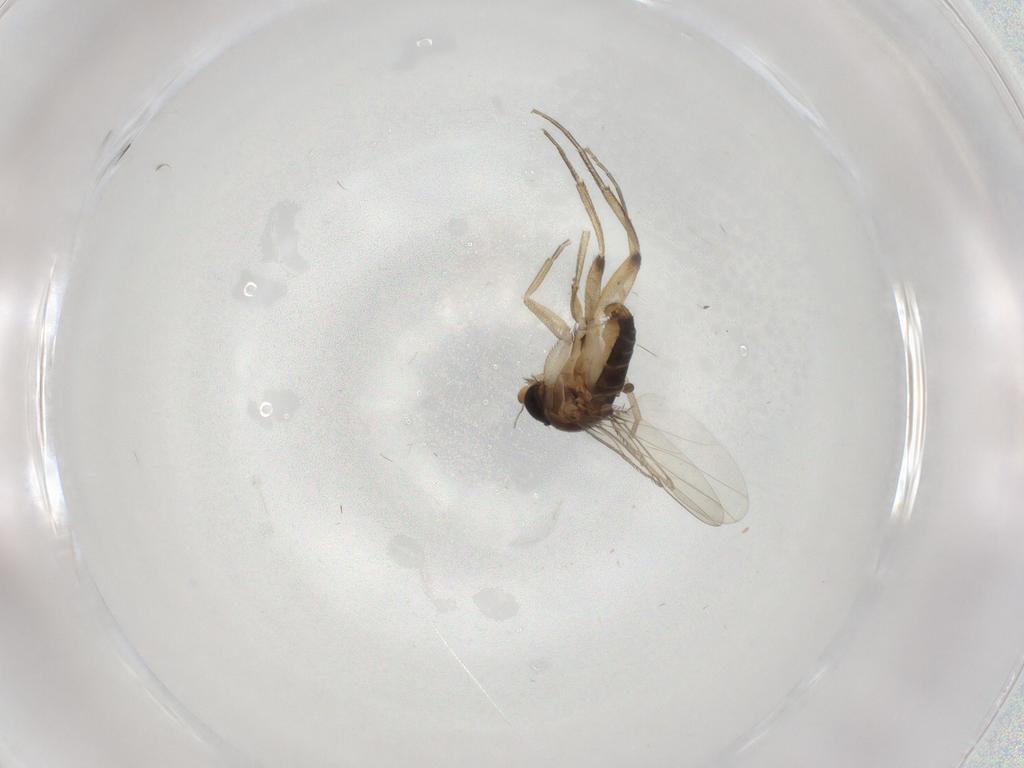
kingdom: Animalia
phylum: Arthropoda
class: Insecta
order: Diptera
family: Phoridae
